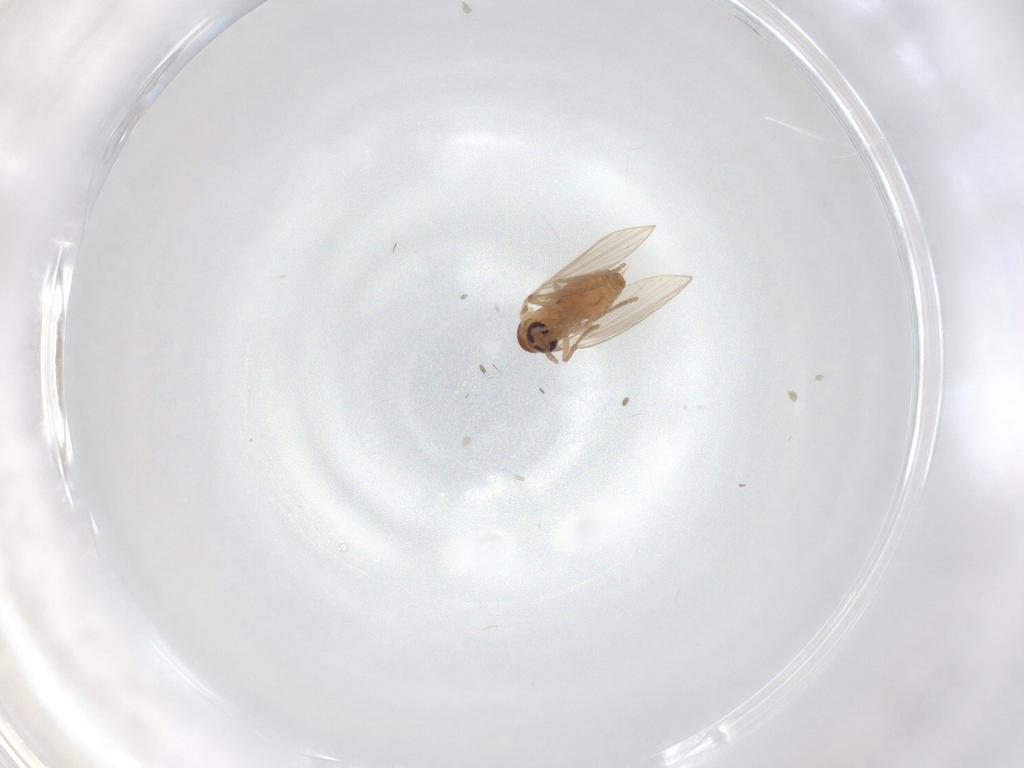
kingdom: Animalia
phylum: Arthropoda
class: Insecta
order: Diptera
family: Psychodidae
